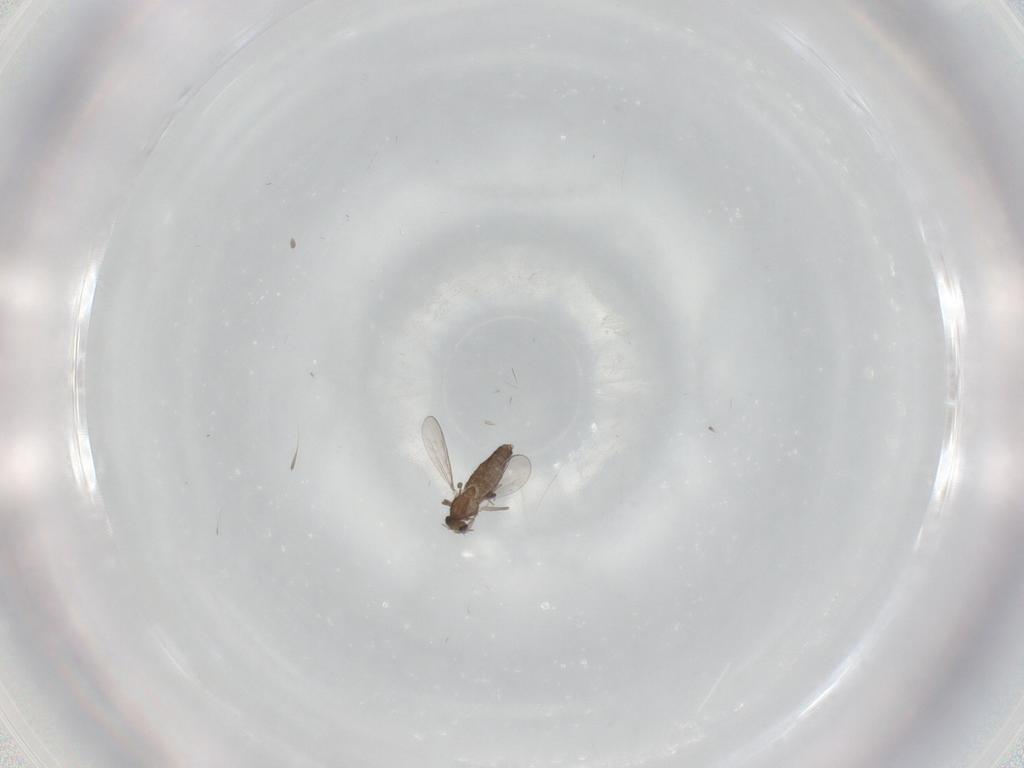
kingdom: Animalia
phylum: Arthropoda
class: Insecta
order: Diptera
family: Chironomidae
